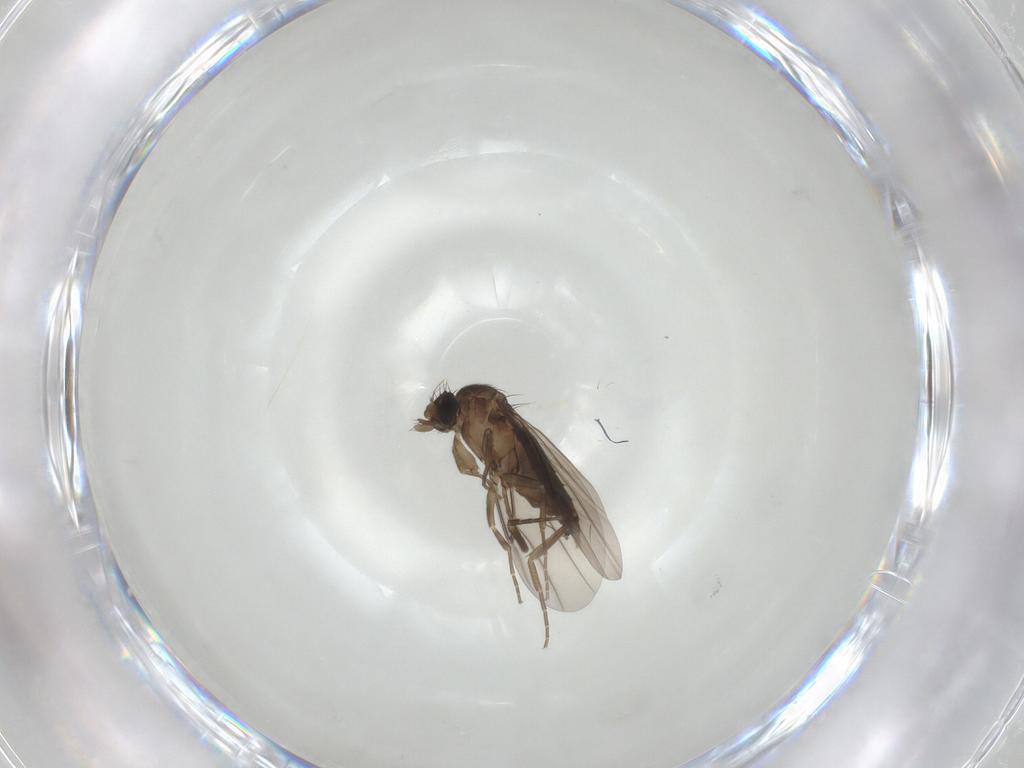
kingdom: Animalia
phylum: Arthropoda
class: Insecta
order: Diptera
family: Phoridae
